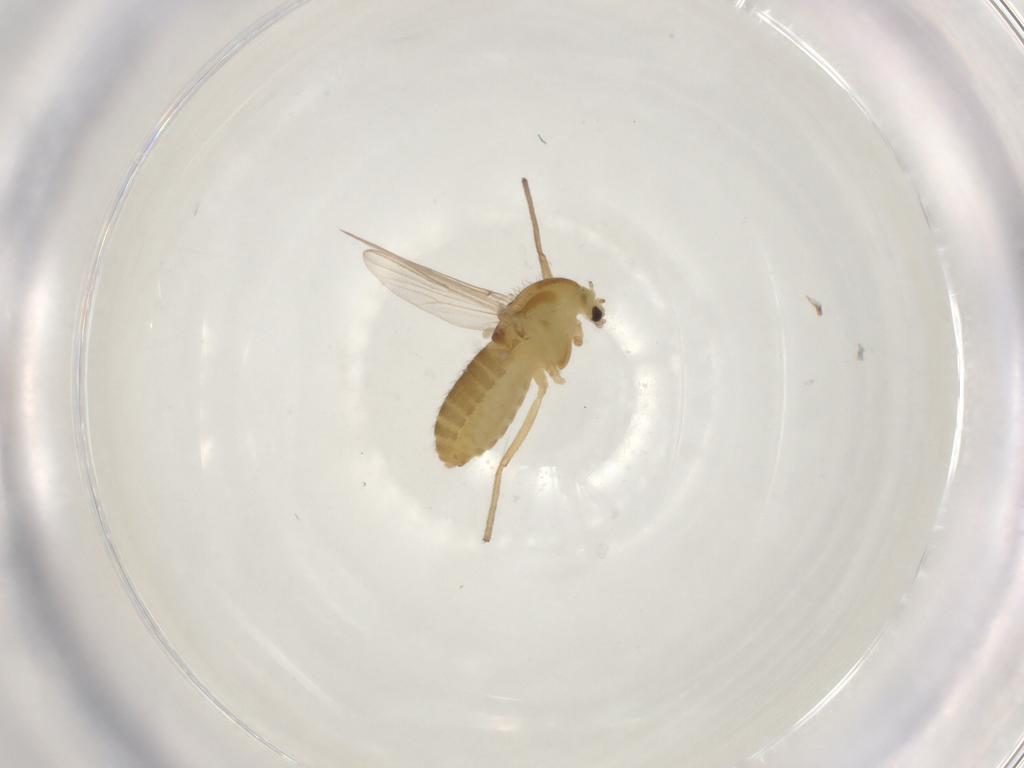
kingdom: Animalia
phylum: Arthropoda
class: Insecta
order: Diptera
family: Chironomidae
